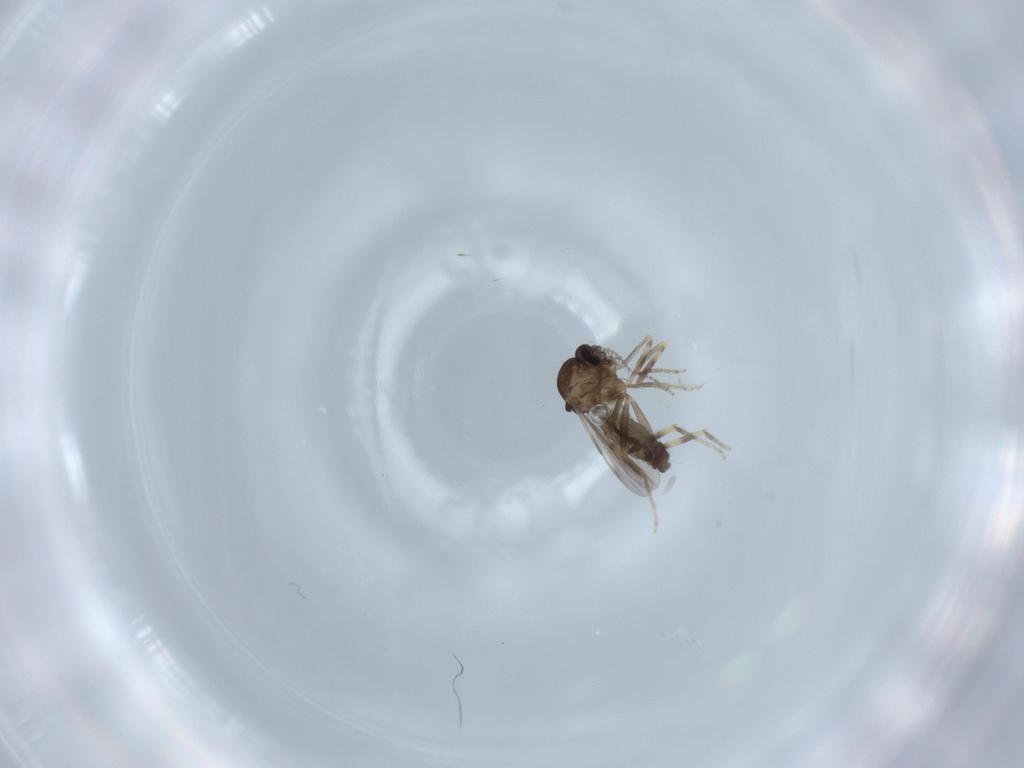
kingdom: Animalia
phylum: Arthropoda
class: Insecta
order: Diptera
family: Ceratopogonidae
